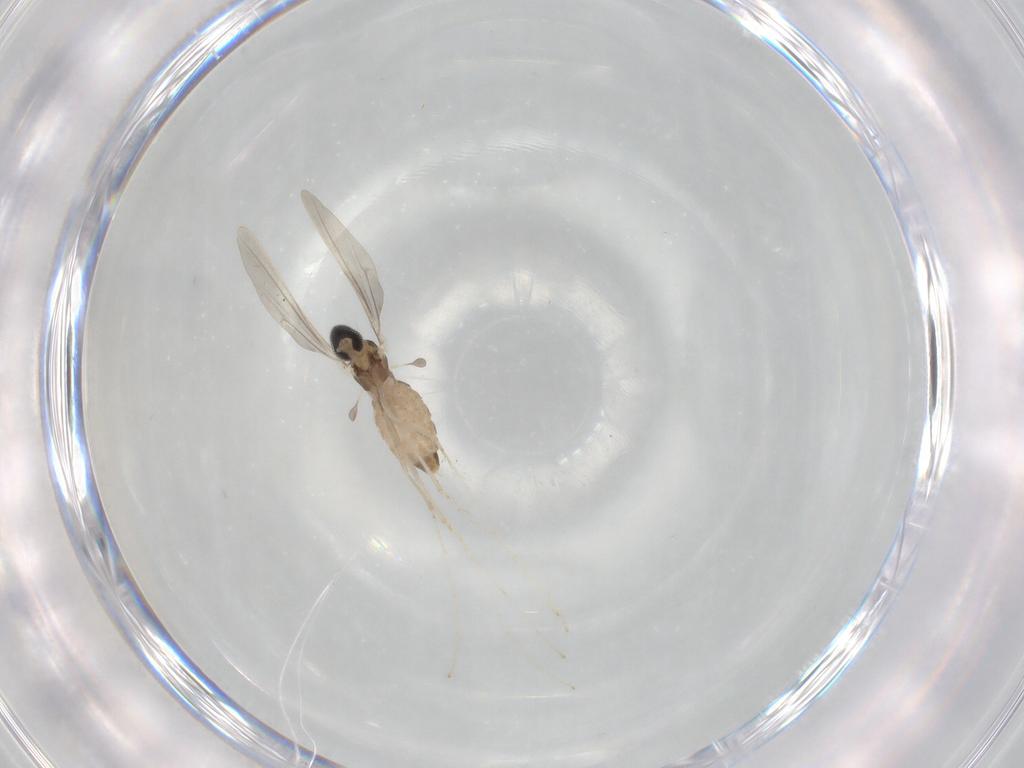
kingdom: Animalia
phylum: Arthropoda
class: Insecta
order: Diptera
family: Cecidomyiidae
